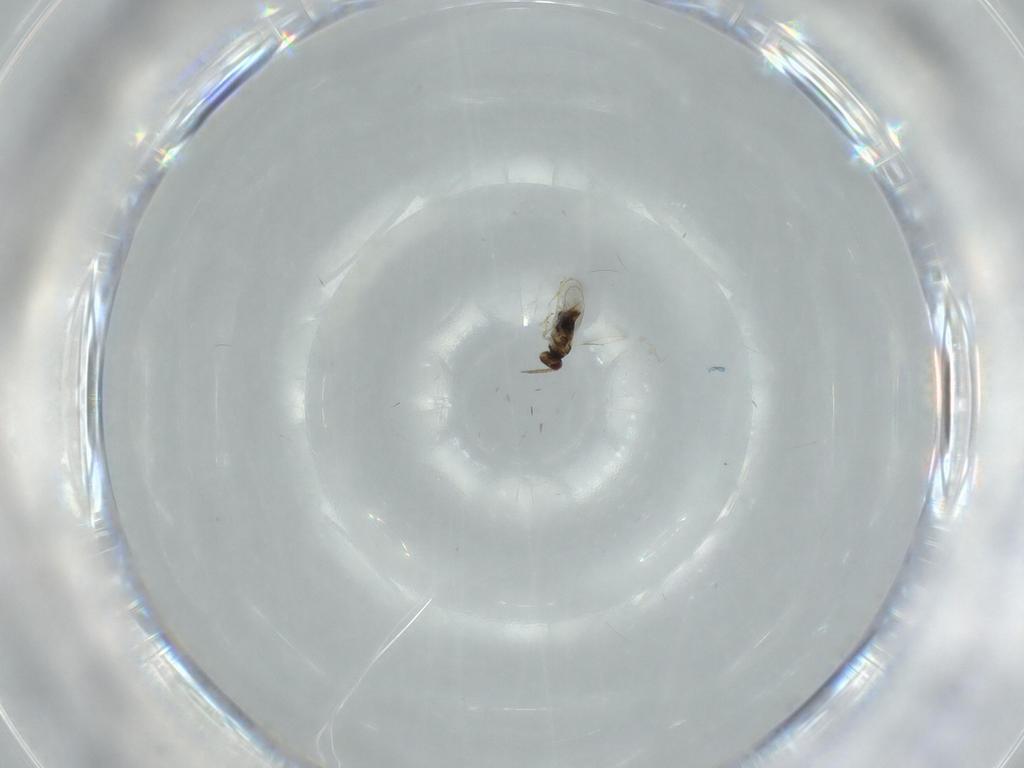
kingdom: Animalia
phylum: Arthropoda
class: Insecta
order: Hymenoptera
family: Aphelinidae
